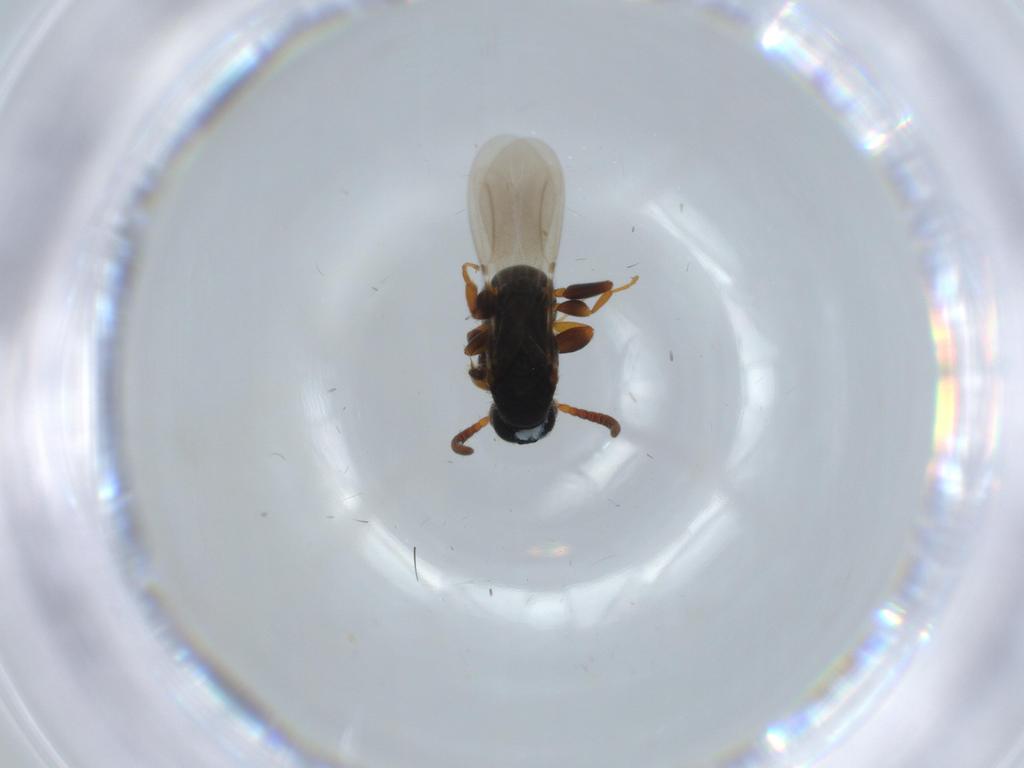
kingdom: Animalia
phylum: Arthropoda
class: Insecta
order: Hymenoptera
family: Bethylidae
